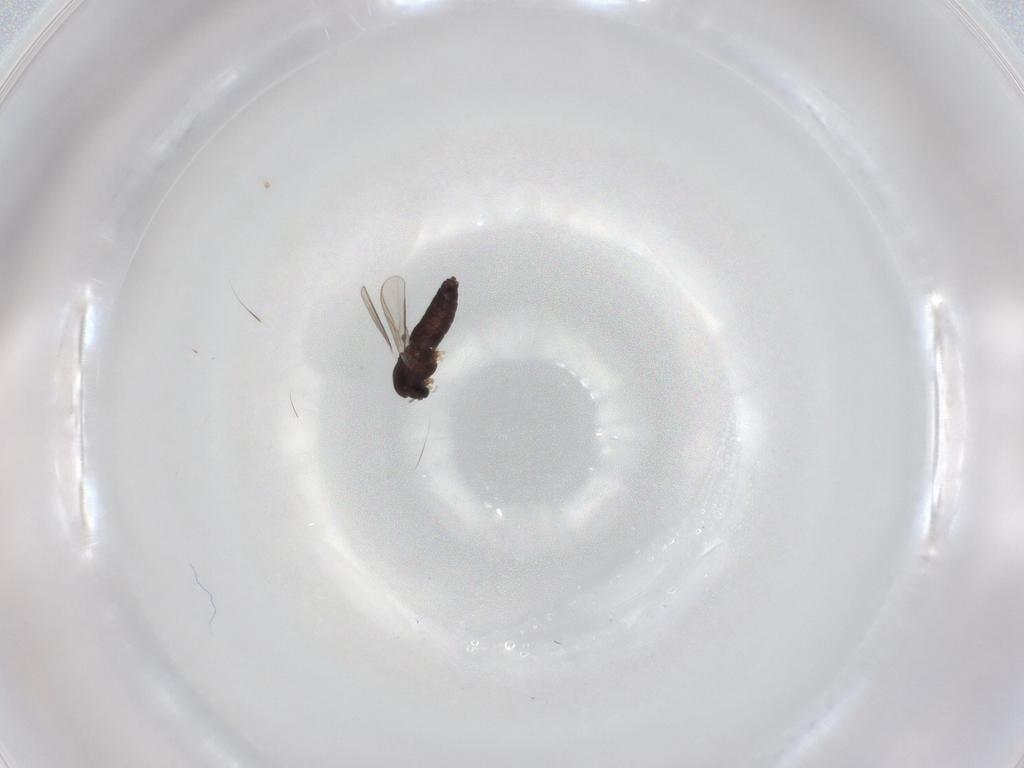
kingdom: Animalia
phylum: Arthropoda
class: Insecta
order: Diptera
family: Chironomidae
